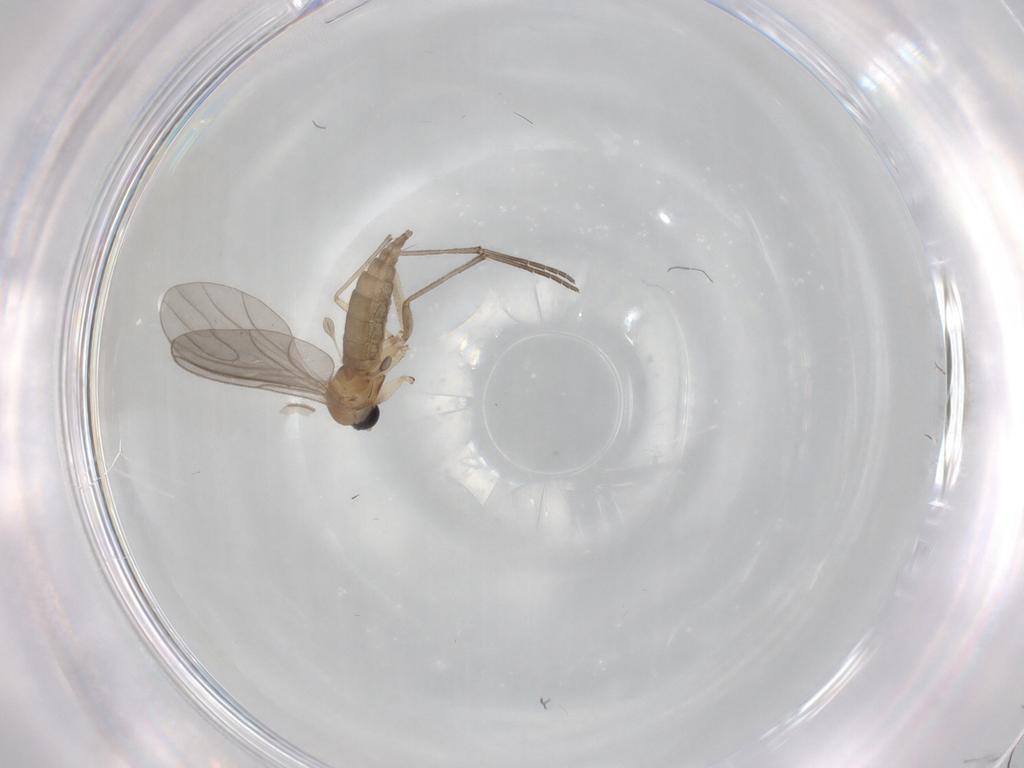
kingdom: Animalia
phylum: Arthropoda
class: Insecta
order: Diptera
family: Sciaridae
